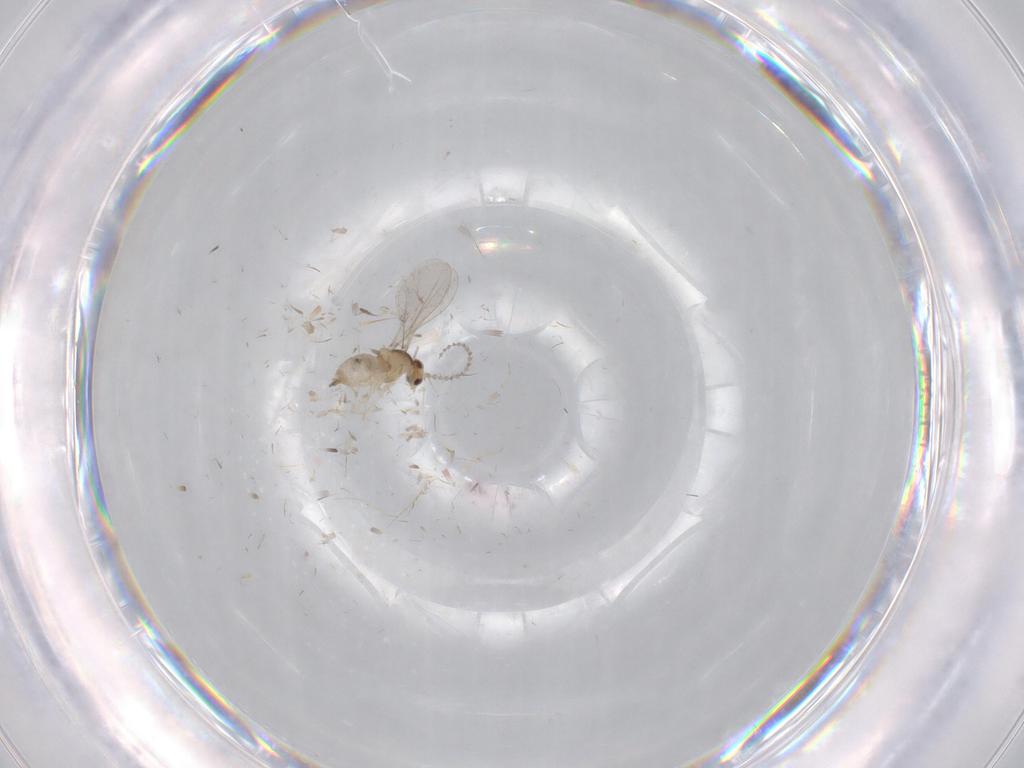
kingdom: Animalia
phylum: Arthropoda
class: Insecta
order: Diptera
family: Cecidomyiidae
